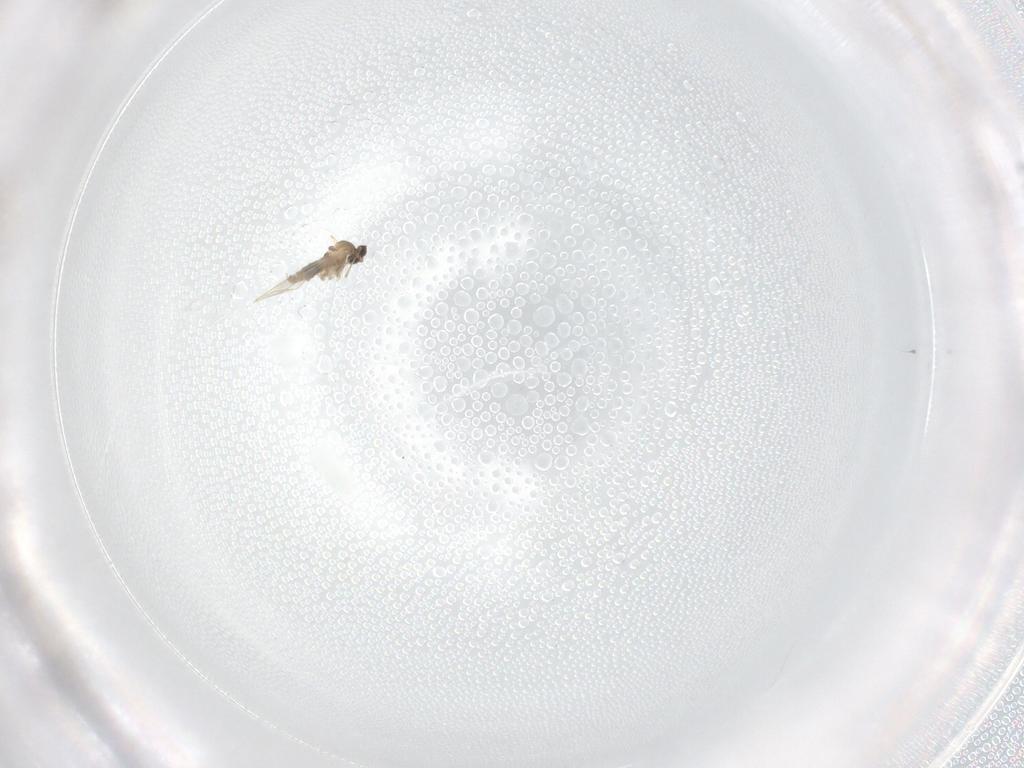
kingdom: Animalia
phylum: Arthropoda
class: Insecta
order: Diptera
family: Cecidomyiidae
